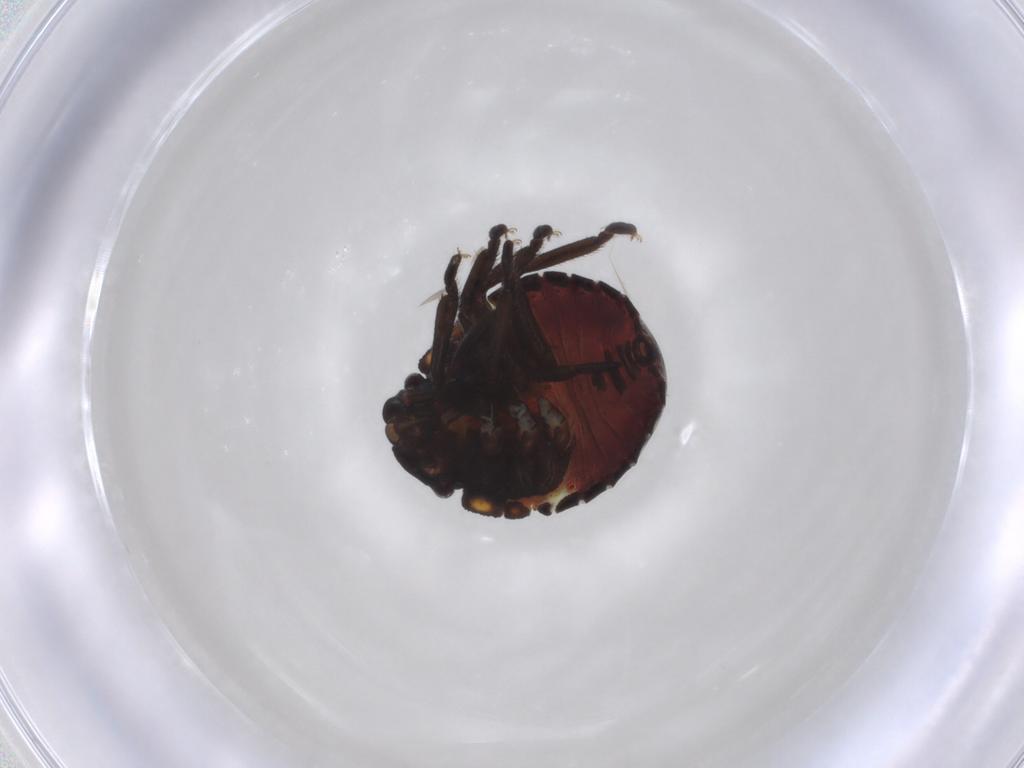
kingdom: Animalia
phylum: Arthropoda
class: Insecta
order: Hemiptera
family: Pentatomidae
